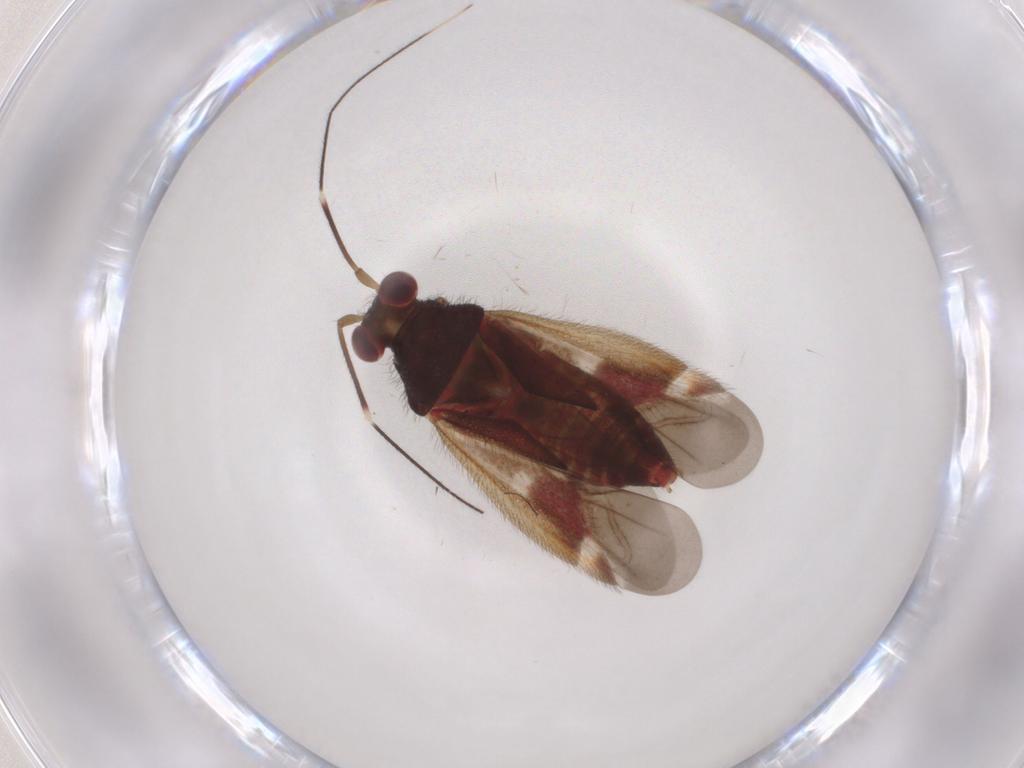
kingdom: Animalia
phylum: Arthropoda
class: Insecta
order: Hemiptera
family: Miridae
